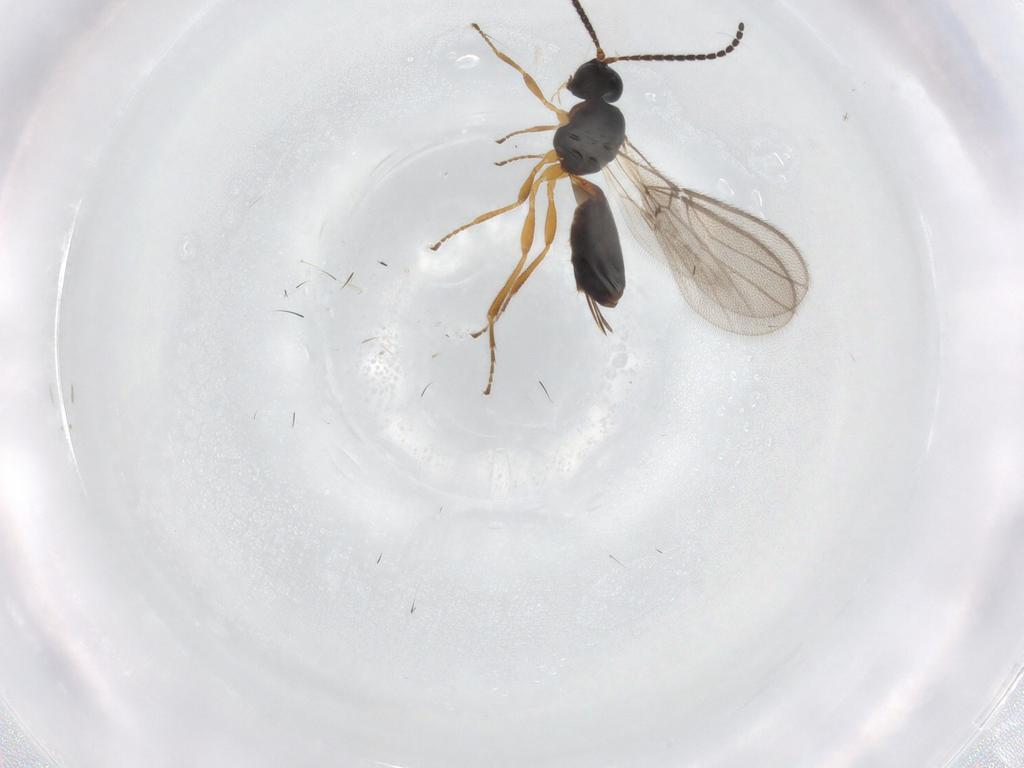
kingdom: Animalia
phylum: Arthropoda
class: Insecta
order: Hymenoptera
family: Braconidae
